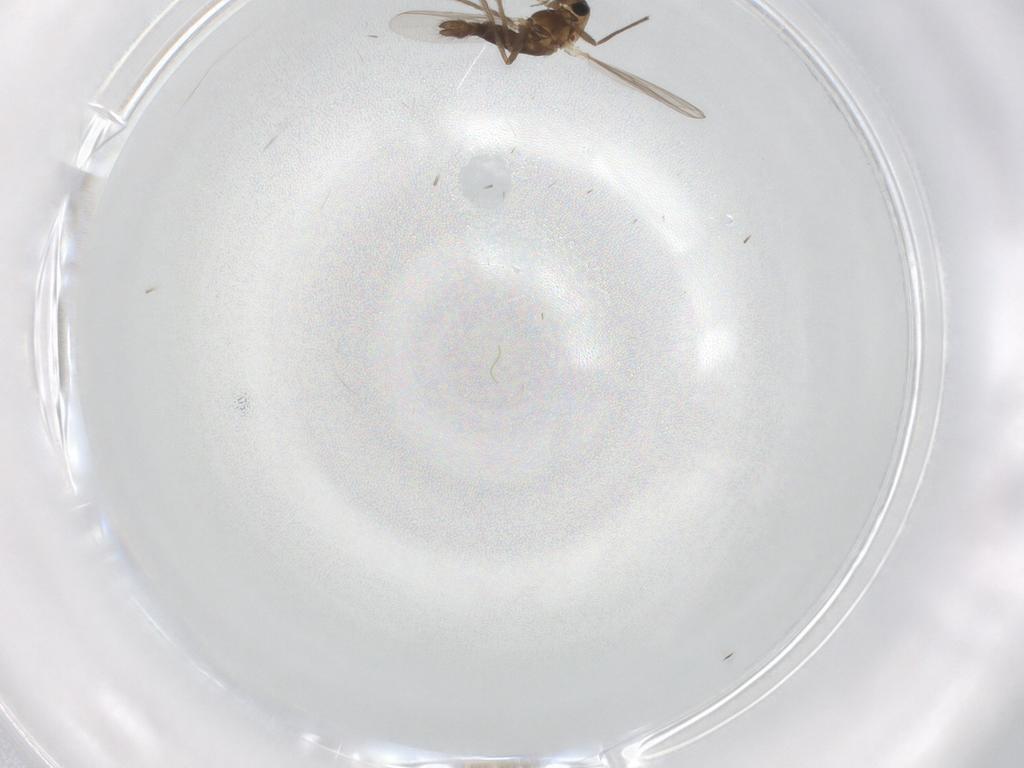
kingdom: Animalia
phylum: Arthropoda
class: Insecta
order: Diptera
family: Chironomidae
